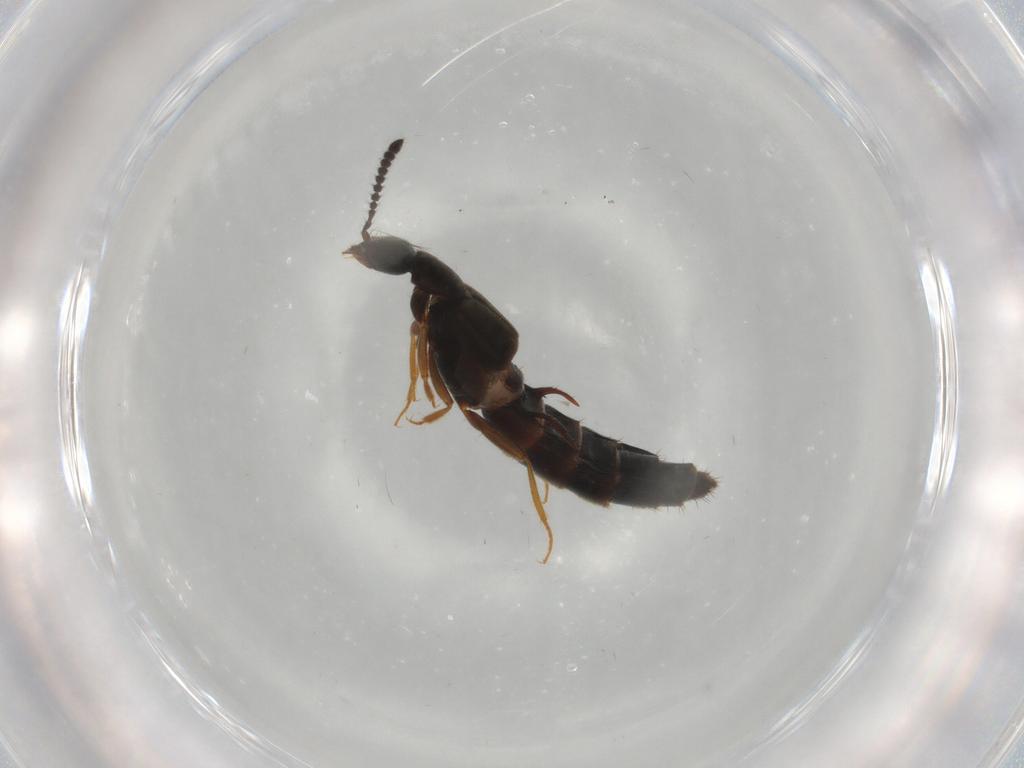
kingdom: Animalia
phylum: Arthropoda
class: Insecta
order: Coleoptera
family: Staphylinidae
